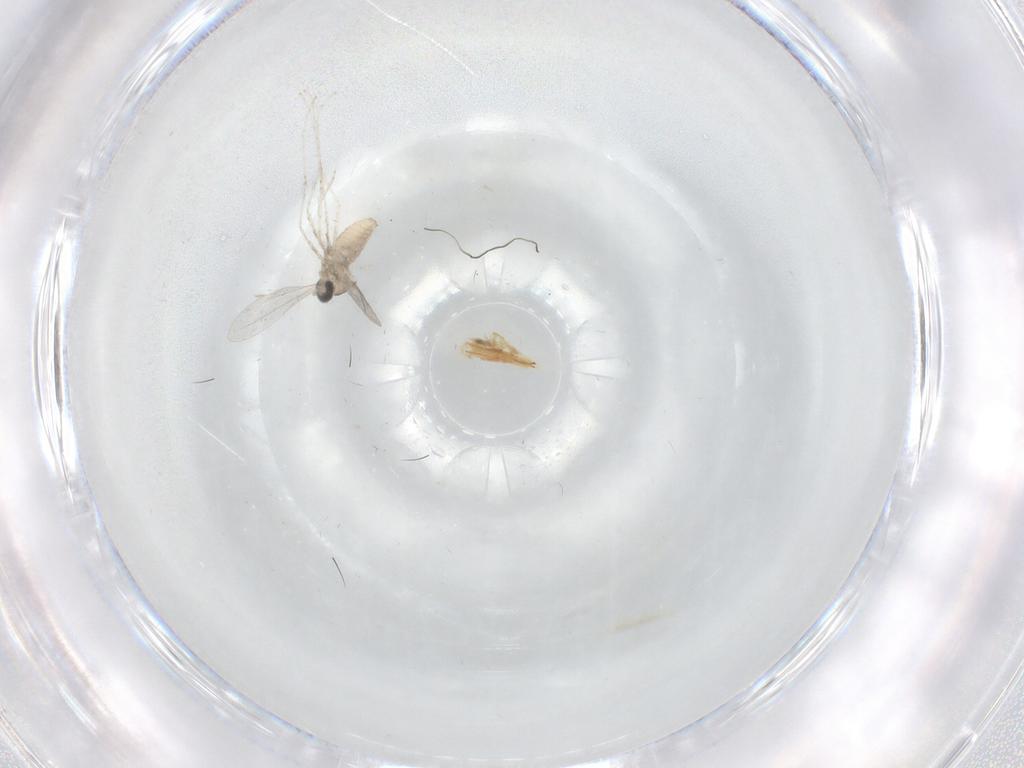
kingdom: Animalia
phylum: Arthropoda
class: Insecta
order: Diptera
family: Cecidomyiidae
